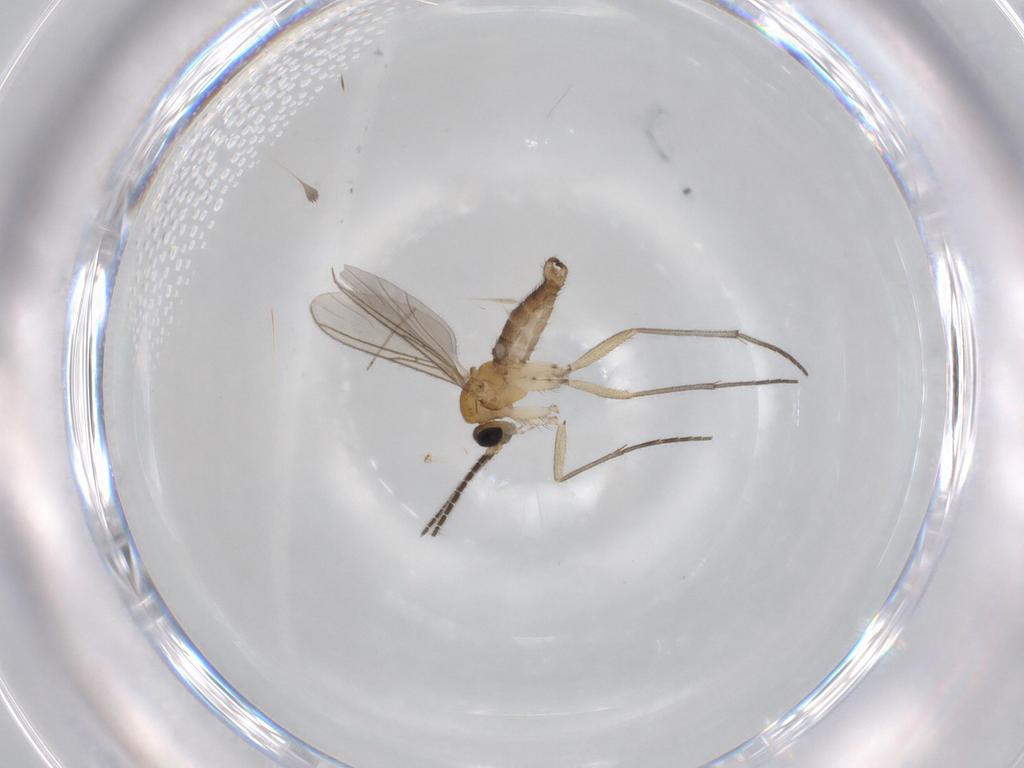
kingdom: Animalia
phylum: Arthropoda
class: Insecta
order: Diptera
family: Sciaridae
